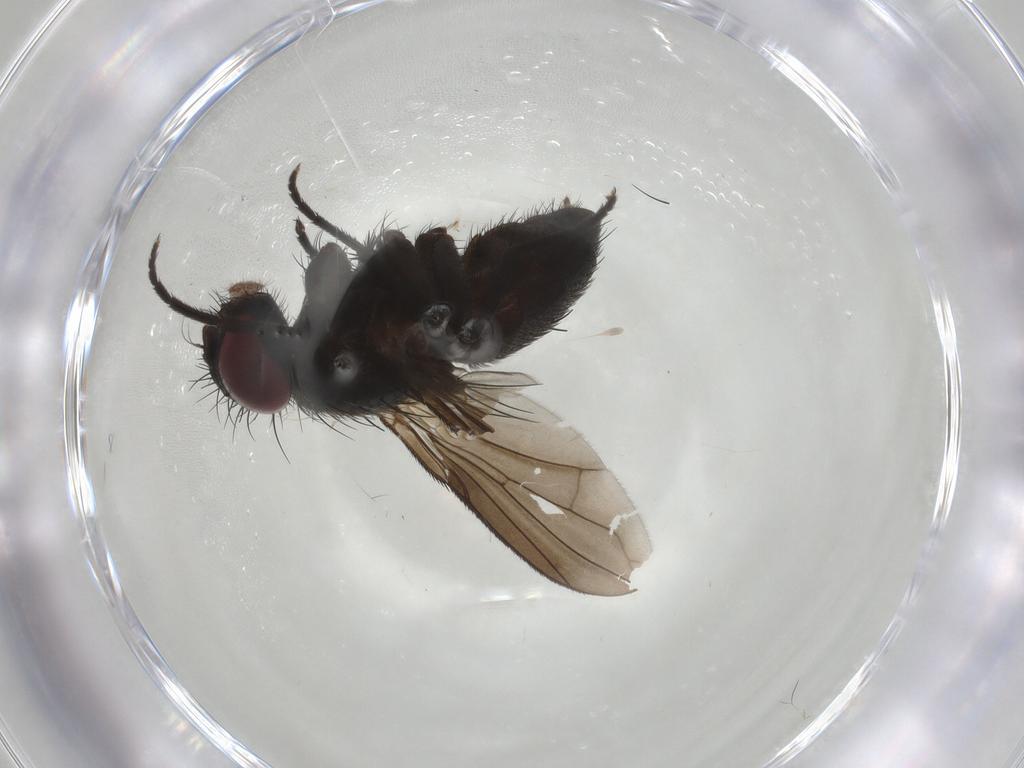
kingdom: Animalia
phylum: Arthropoda
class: Insecta
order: Diptera
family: Calliphoridae
